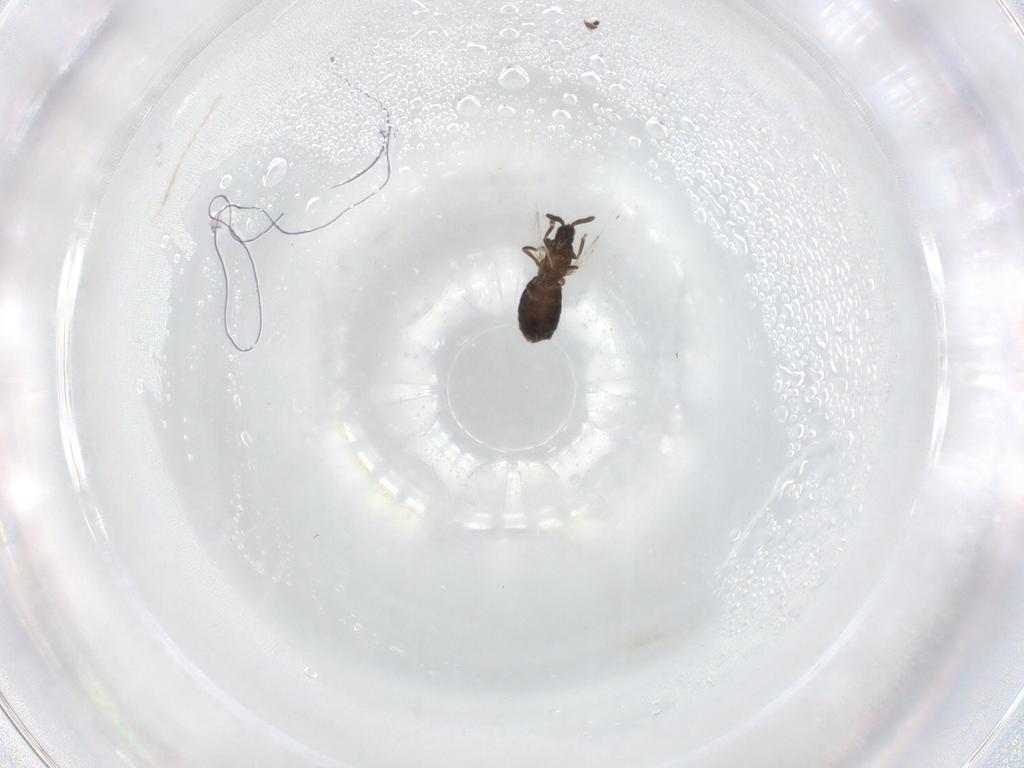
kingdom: Animalia
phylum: Arthropoda
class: Insecta
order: Diptera
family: Scatopsidae
